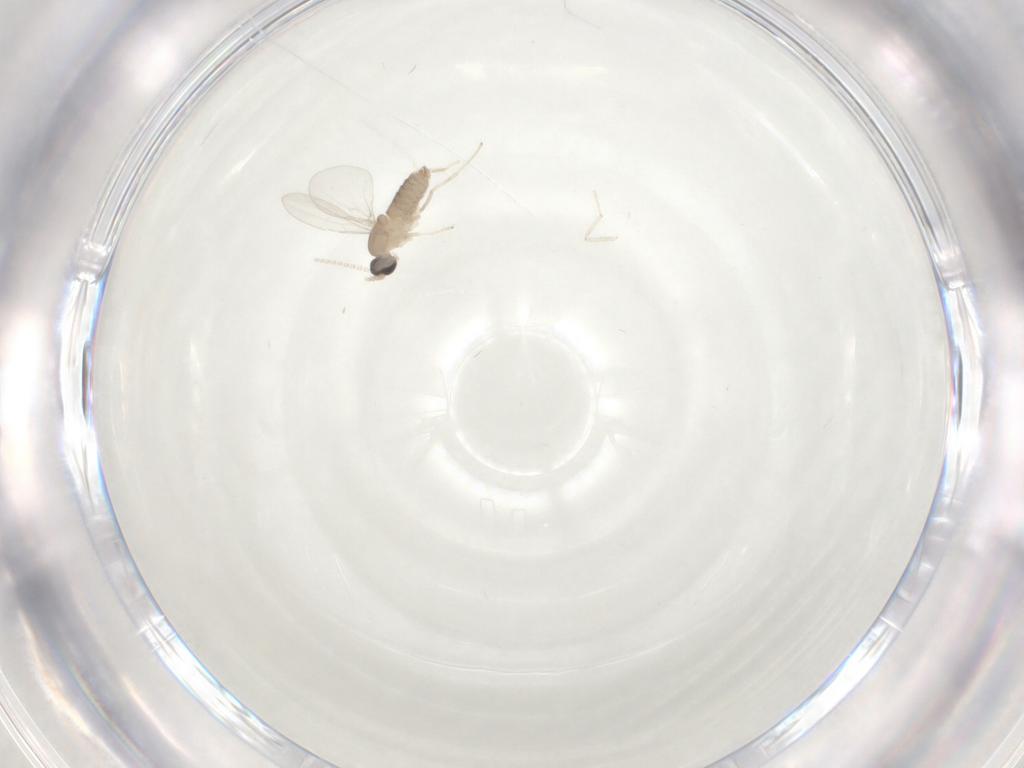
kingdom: Animalia
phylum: Arthropoda
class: Insecta
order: Diptera
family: Cecidomyiidae
